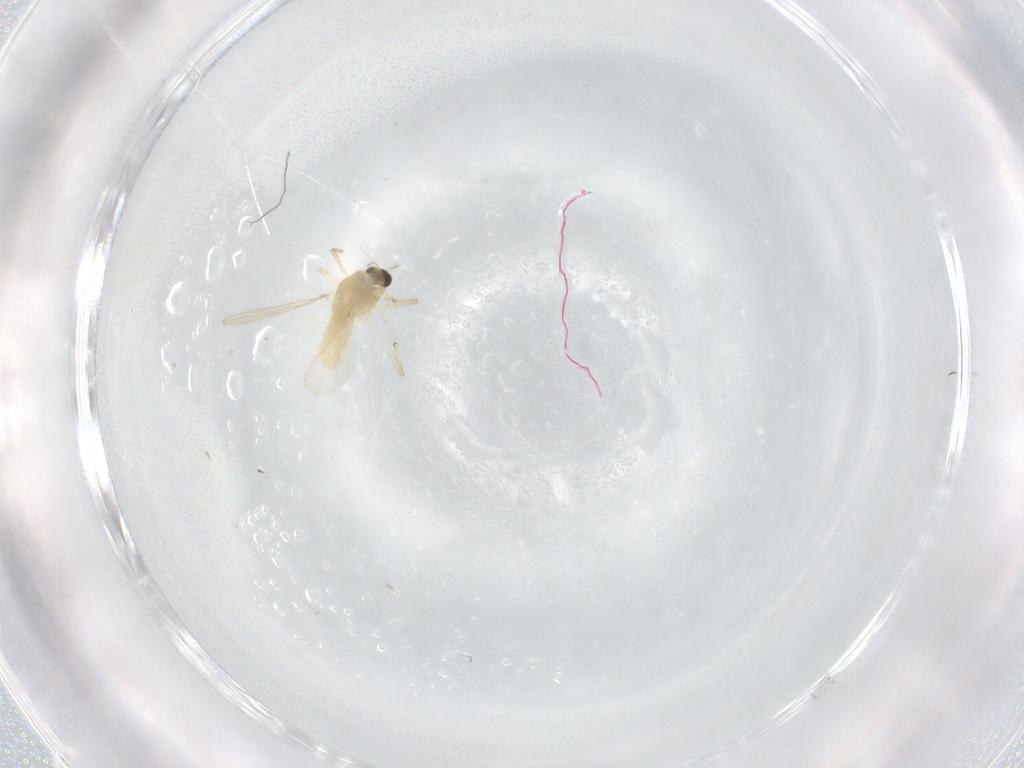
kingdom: Animalia
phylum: Arthropoda
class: Insecta
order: Diptera
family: Chironomidae
